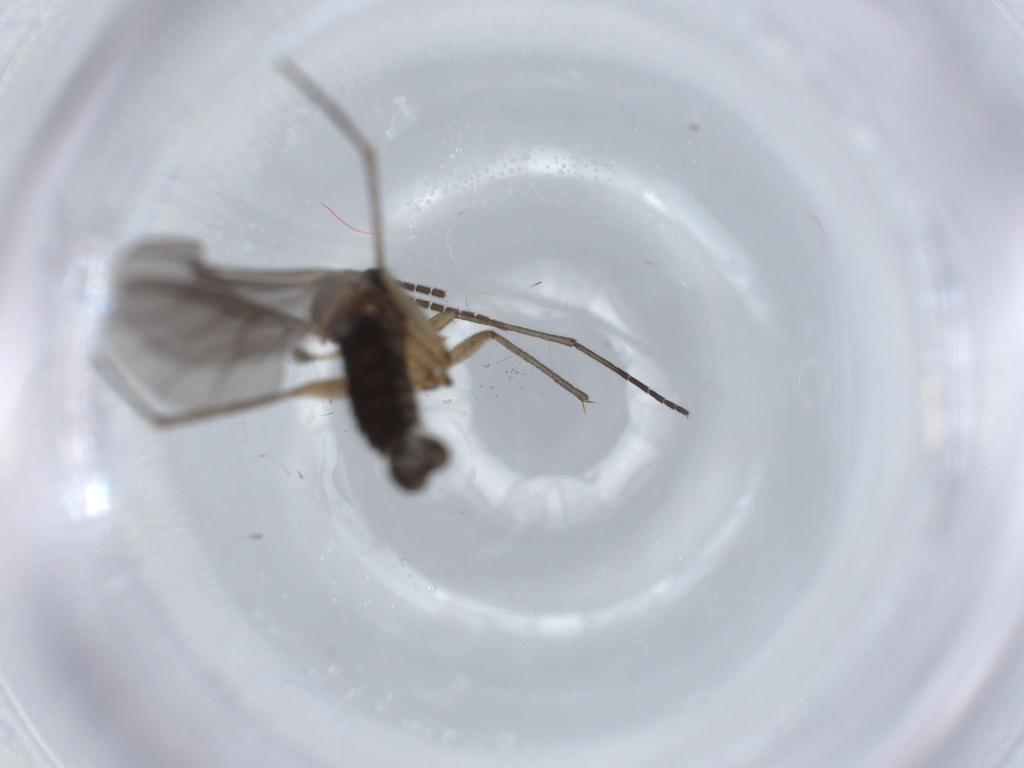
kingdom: Animalia
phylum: Arthropoda
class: Insecta
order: Diptera
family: Sciaridae
